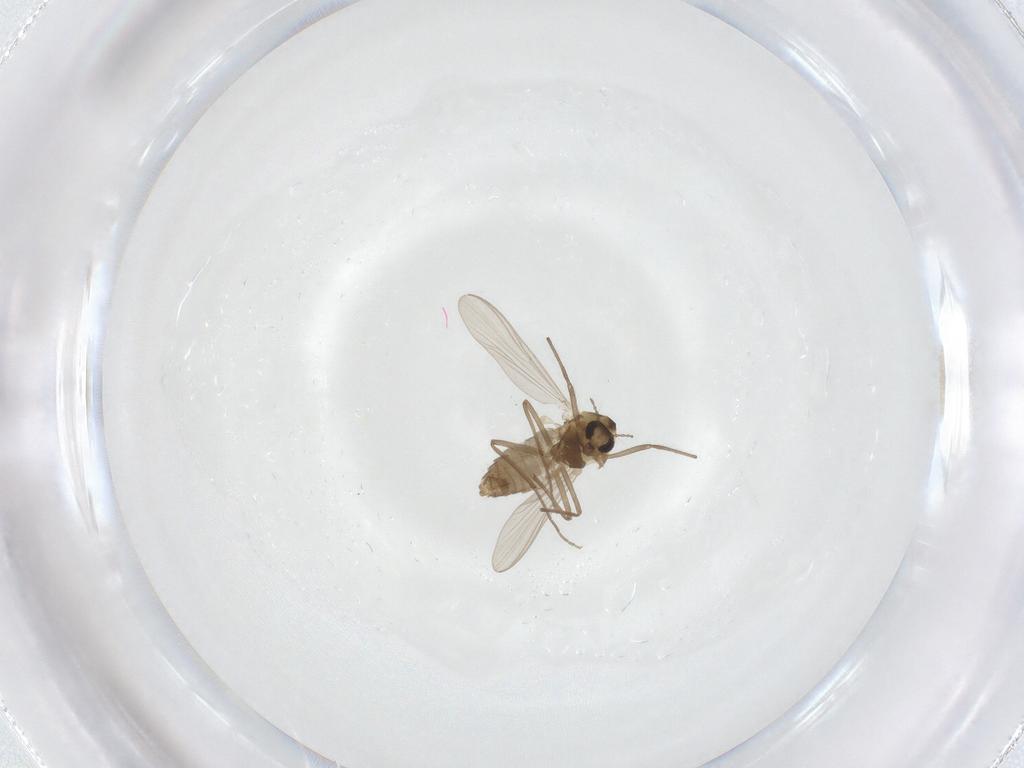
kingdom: Animalia
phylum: Arthropoda
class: Insecta
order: Diptera
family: Chironomidae
